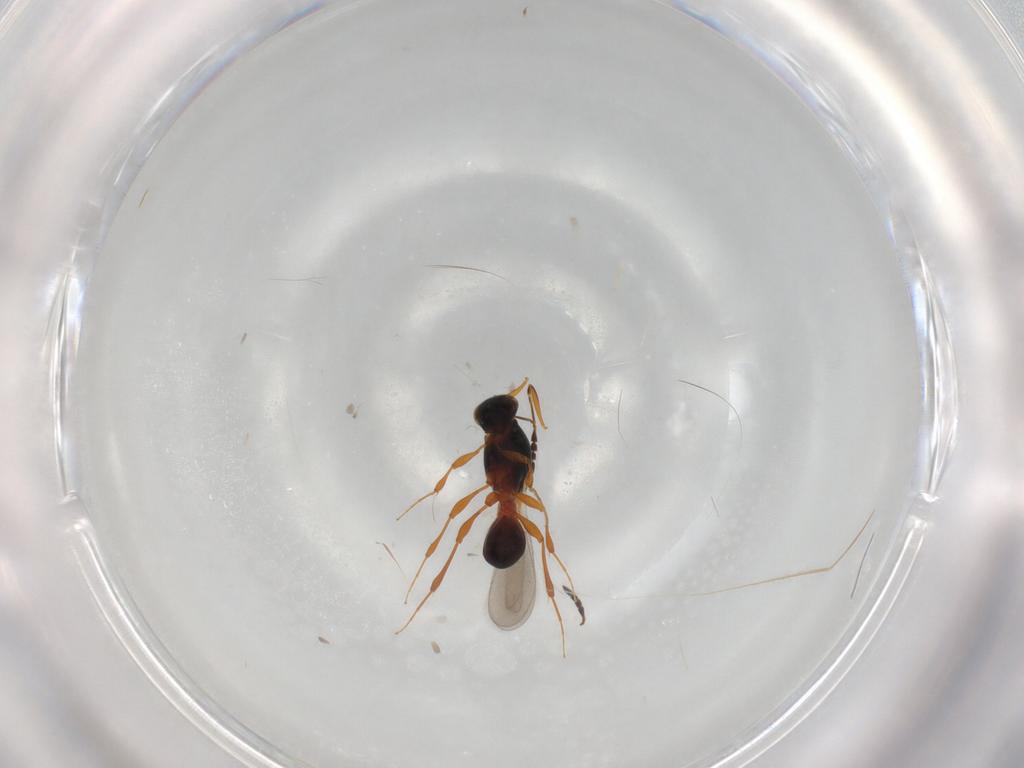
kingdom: Animalia
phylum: Arthropoda
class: Insecta
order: Hymenoptera
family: Platygastridae
